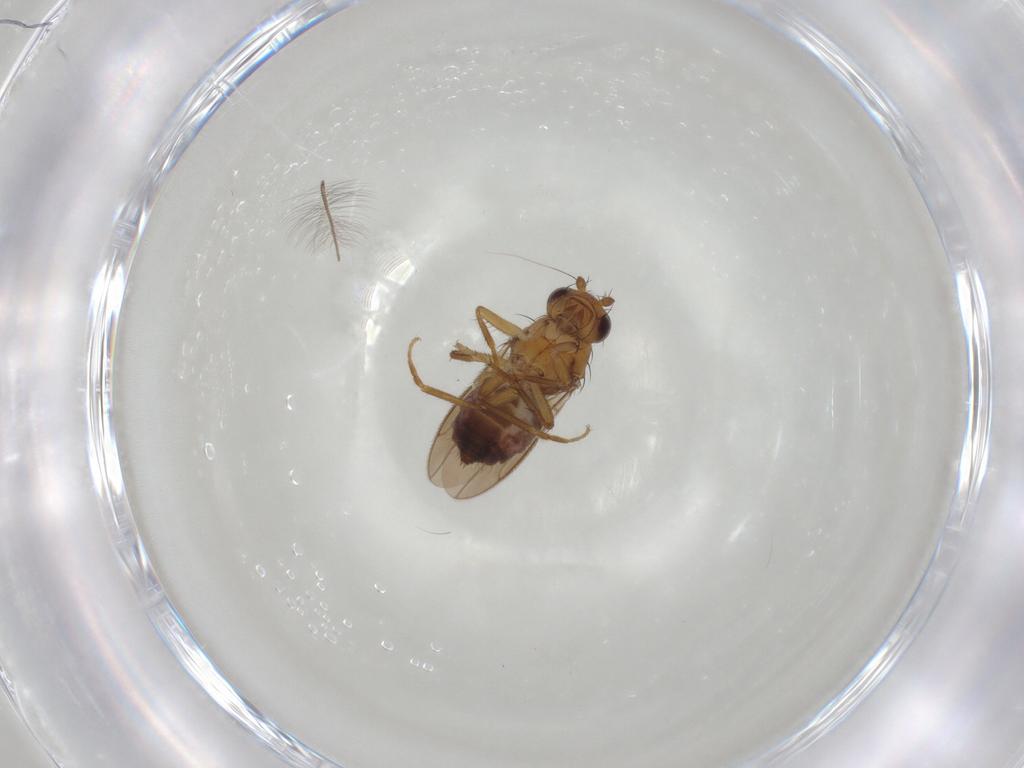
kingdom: Animalia
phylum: Arthropoda
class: Insecta
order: Diptera
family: Sphaeroceridae
